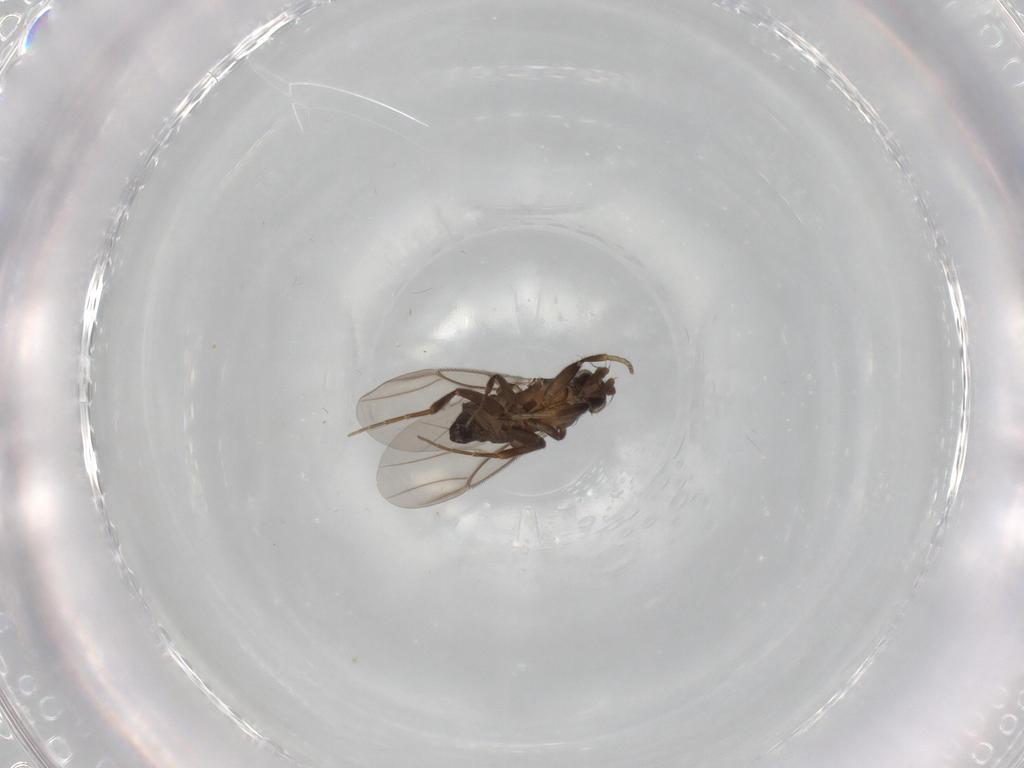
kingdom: Animalia
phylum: Arthropoda
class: Insecta
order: Diptera
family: Phoridae
